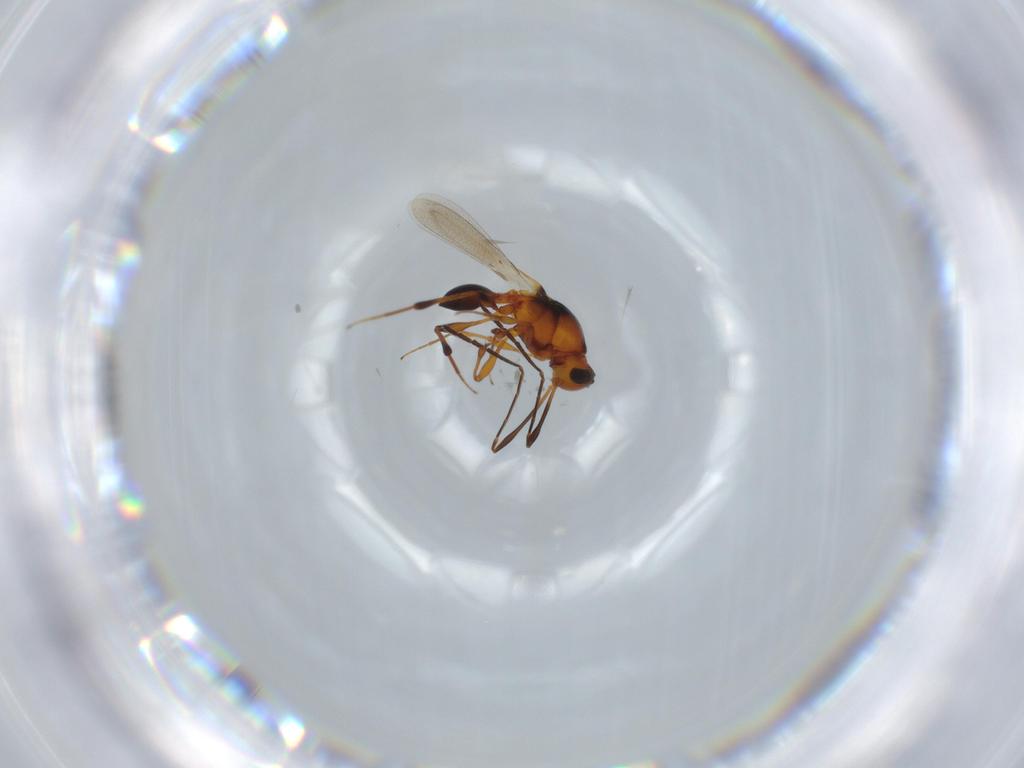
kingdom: Animalia
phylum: Arthropoda
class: Insecta
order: Hymenoptera
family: Platygastridae
